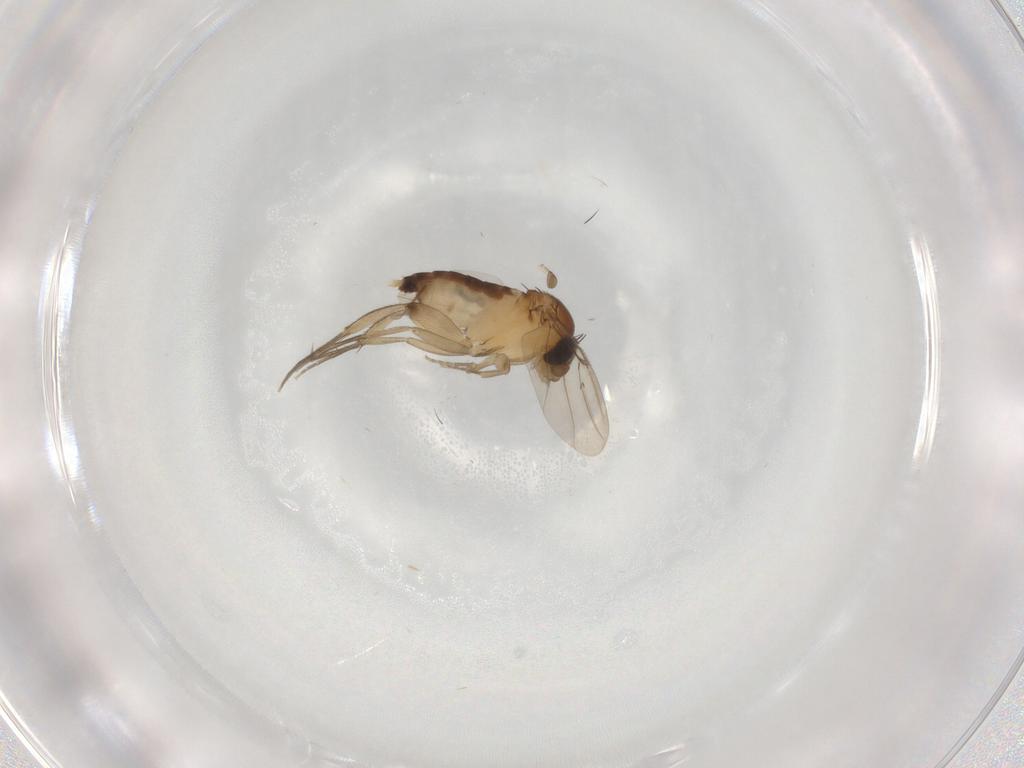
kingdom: Animalia
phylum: Arthropoda
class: Insecta
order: Diptera
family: Phoridae
